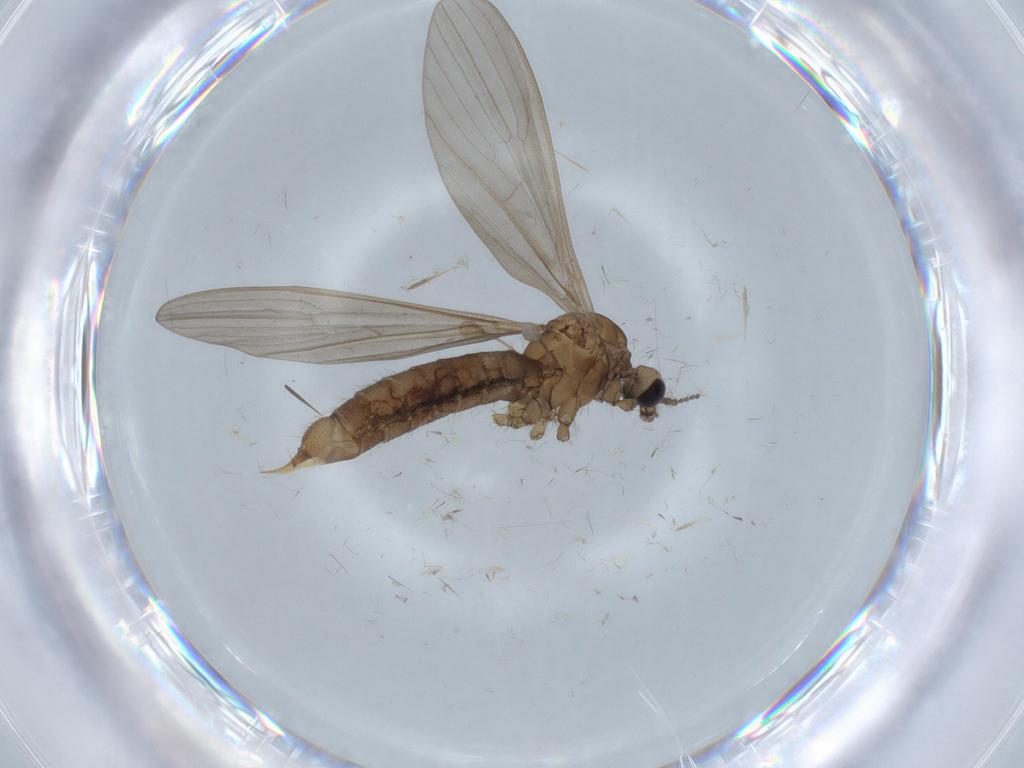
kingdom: Animalia
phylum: Arthropoda
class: Insecta
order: Diptera
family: Limoniidae
